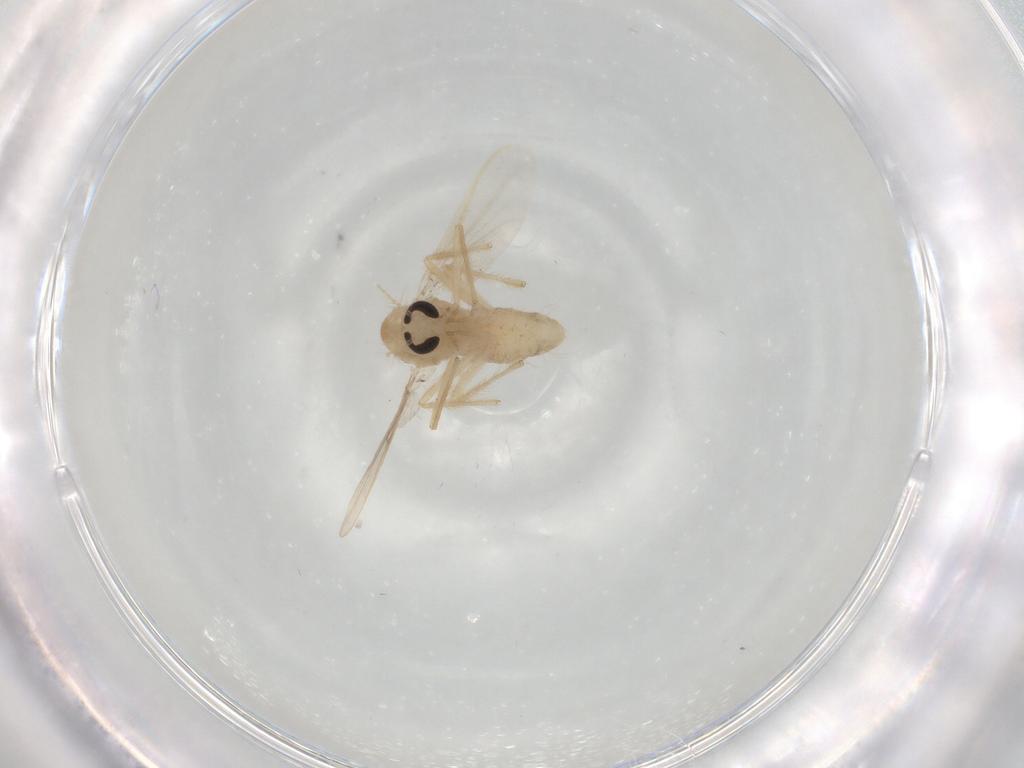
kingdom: Animalia
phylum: Arthropoda
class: Insecta
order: Diptera
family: Chironomidae
